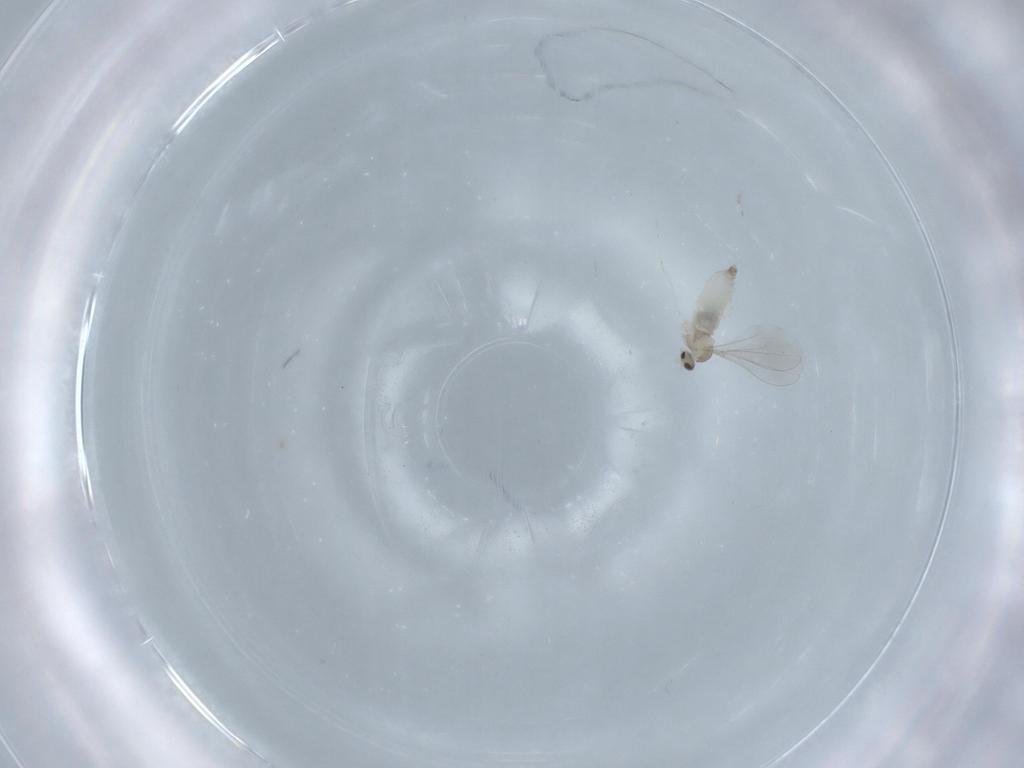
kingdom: Animalia
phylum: Arthropoda
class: Insecta
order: Diptera
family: Cecidomyiidae
